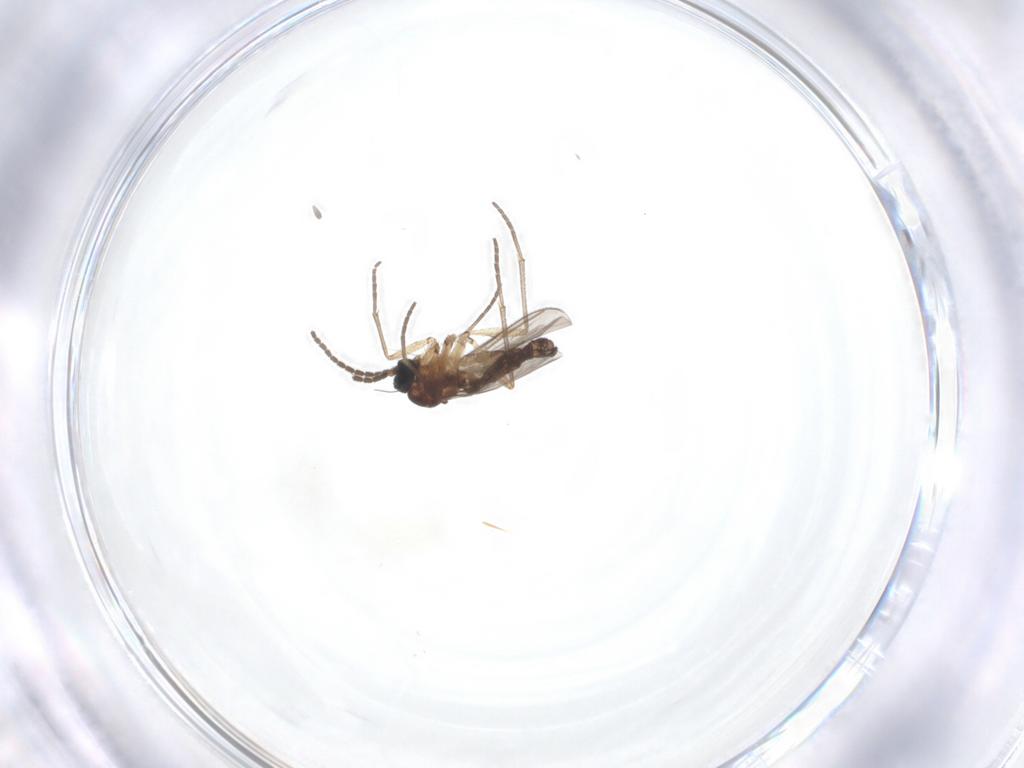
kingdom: Animalia
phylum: Arthropoda
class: Insecta
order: Diptera
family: Sciaridae
